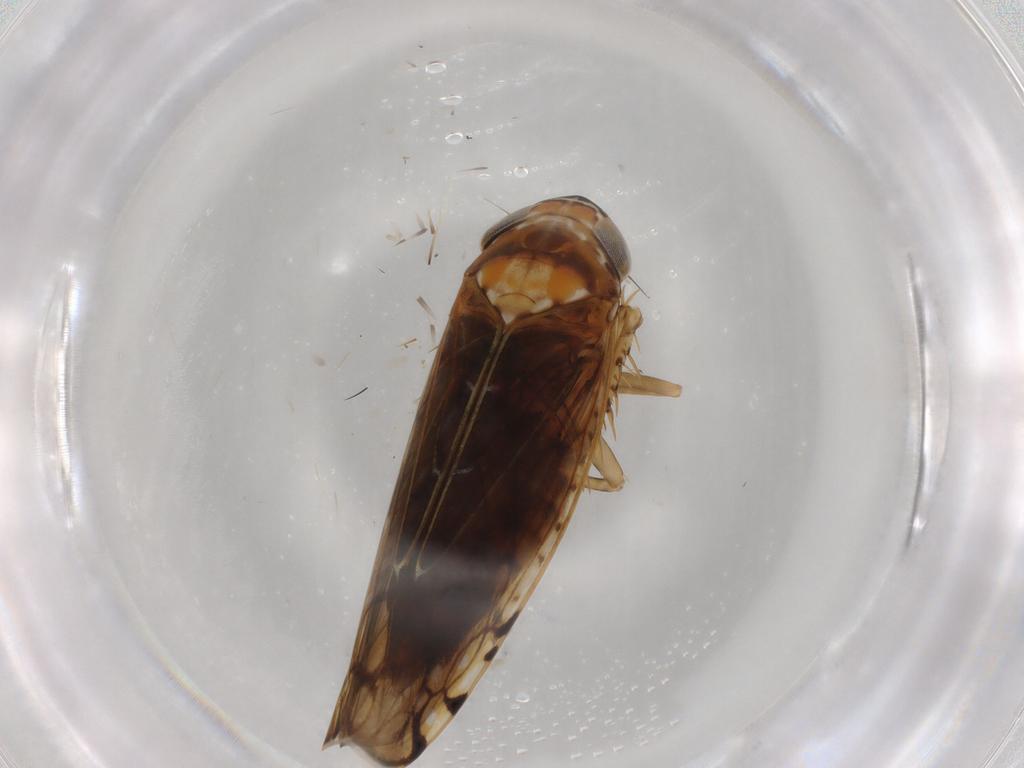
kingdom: Animalia
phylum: Arthropoda
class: Insecta
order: Hemiptera
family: Cicadellidae
